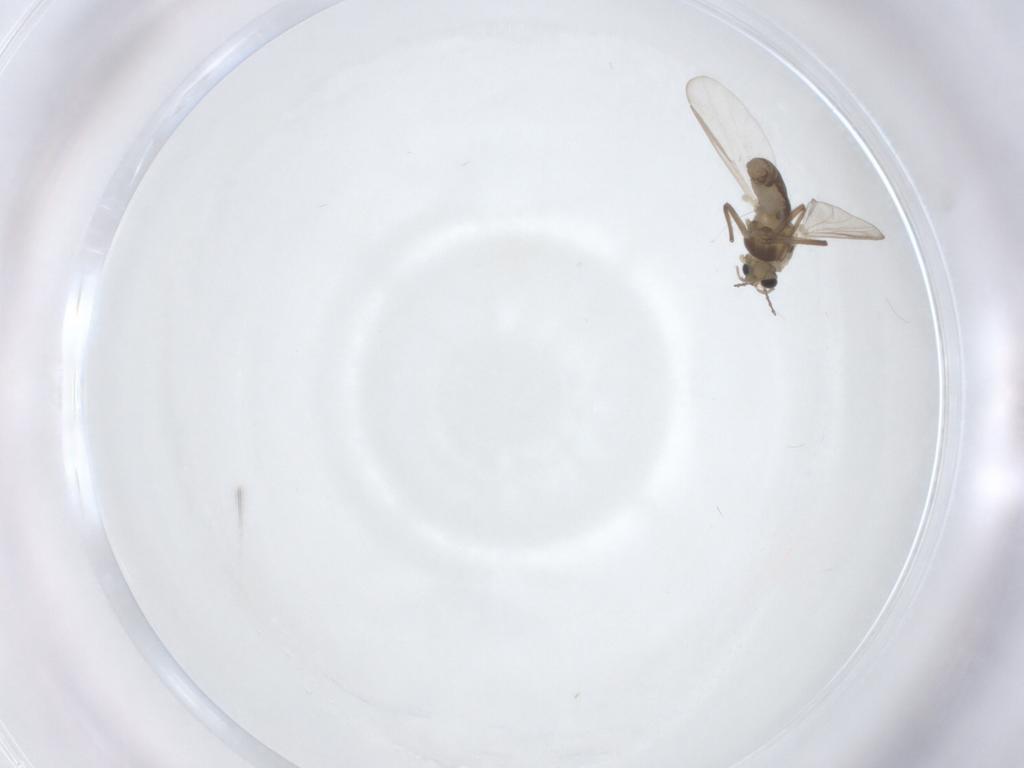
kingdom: Animalia
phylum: Arthropoda
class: Insecta
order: Diptera
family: Chironomidae
